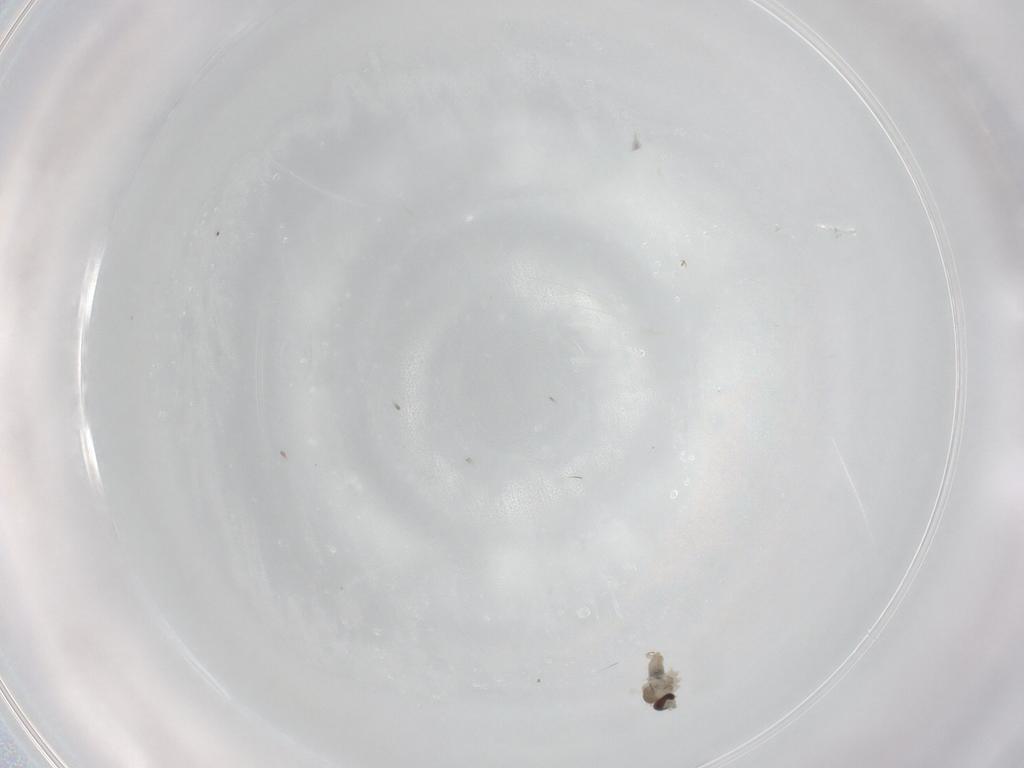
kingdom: Animalia
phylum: Arthropoda
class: Insecta
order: Diptera
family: Cecidomyiidae
